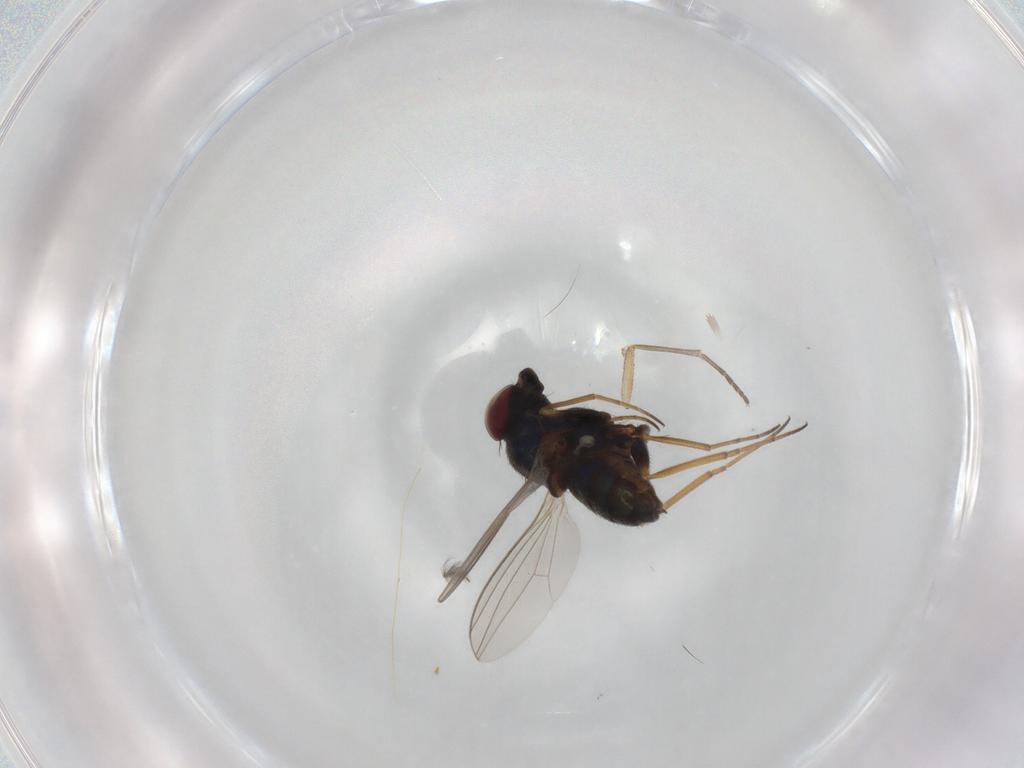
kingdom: Animalia
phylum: Arthropoda
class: Insecta
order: Diptera
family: Dolichopodidae
